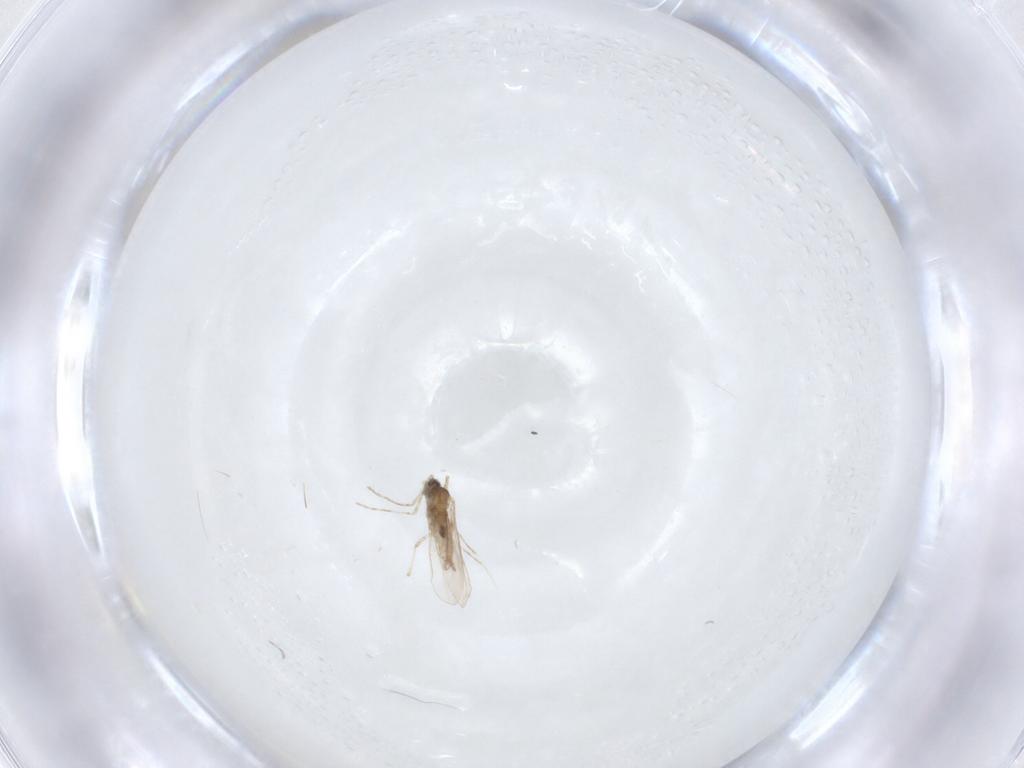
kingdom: Animalia
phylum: Arthropoda
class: Insecta
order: Diptera
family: Cecidomyiidae
